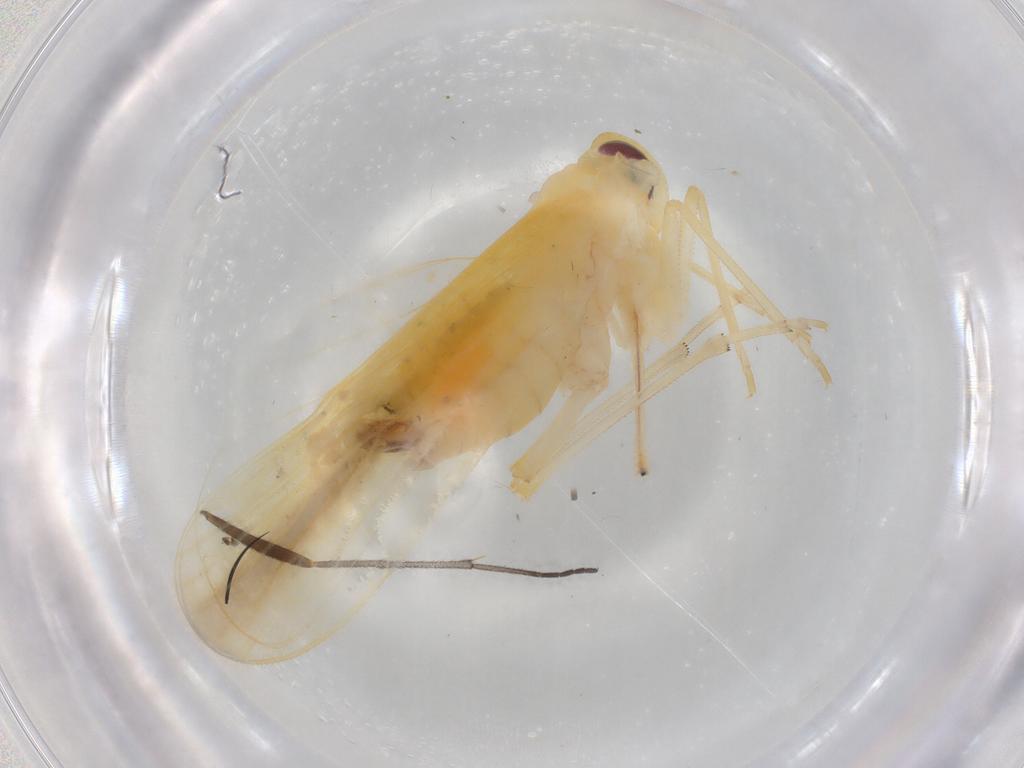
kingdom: Animalia
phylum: Arthropoda
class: Insecta
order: Hemiptera
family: Derbidae
